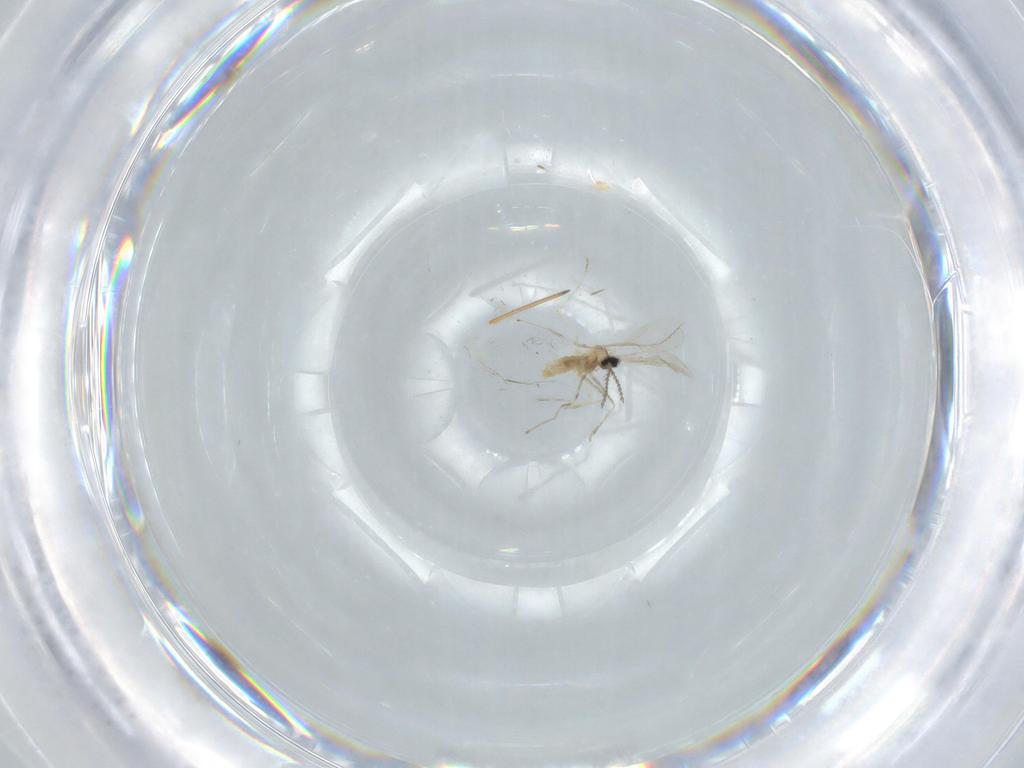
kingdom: Animalia
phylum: Arthropoda
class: Insecta
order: Diptera
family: Cecidomyiidae
